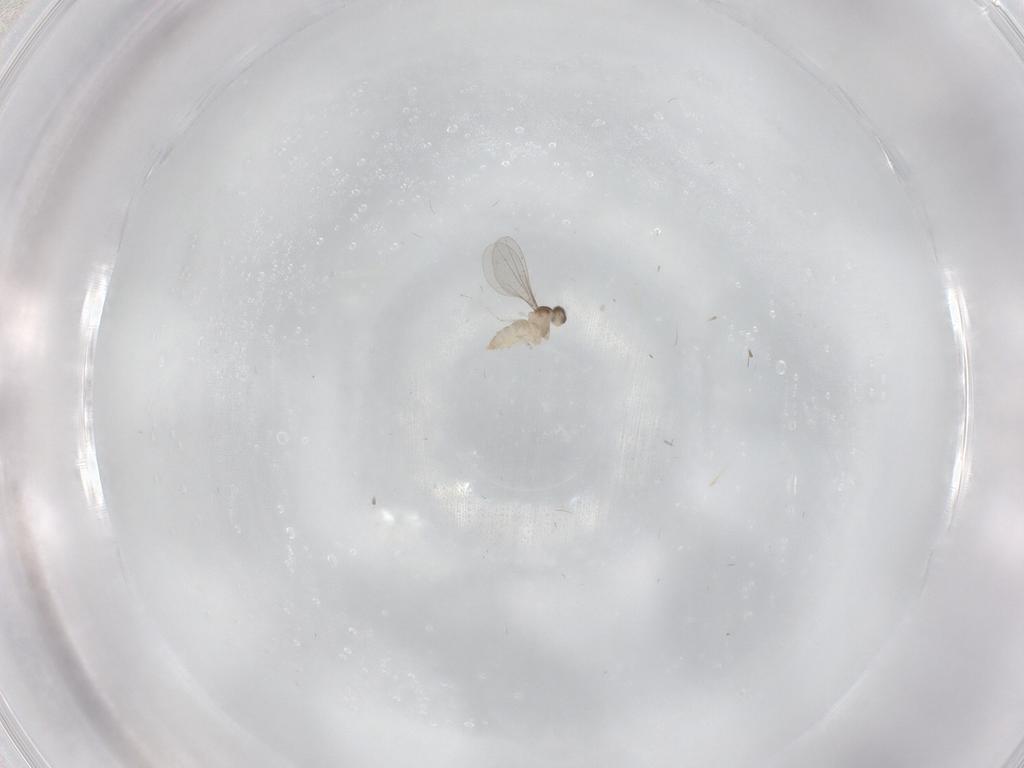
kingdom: Animalia
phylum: Arthropoda
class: Insecta
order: Diptera
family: Cecidomyiidae
